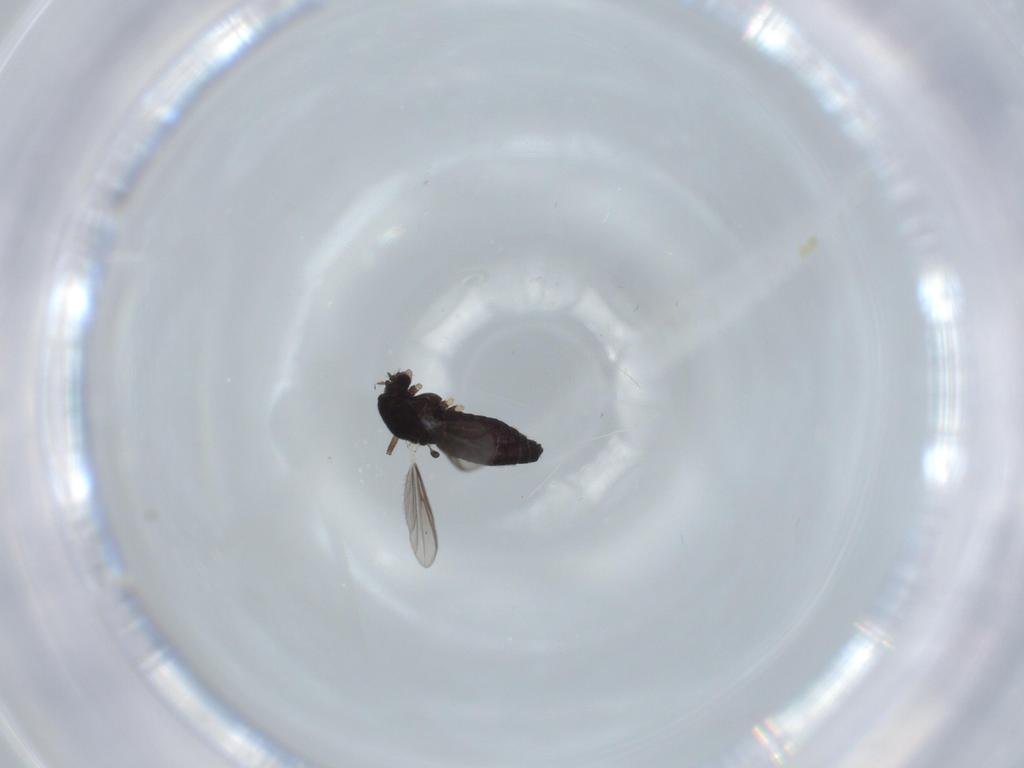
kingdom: Animalia
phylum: Arthropoda
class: Insecta
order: Diptera
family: Chironomidae
